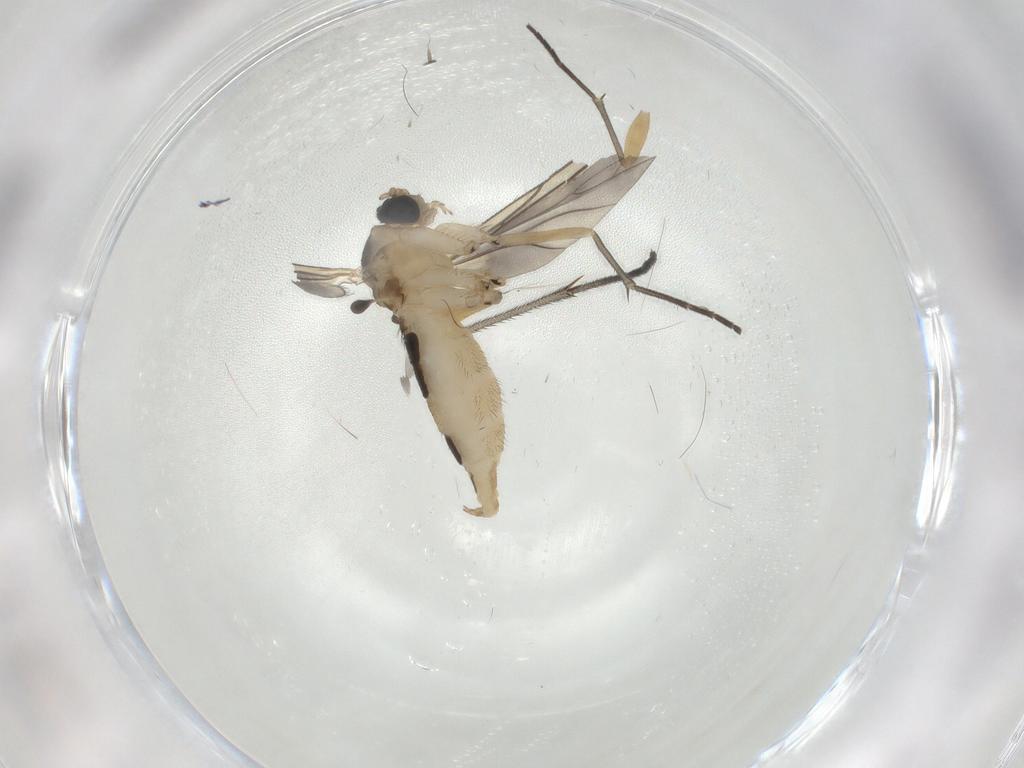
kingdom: Animalia
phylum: Arthropoda
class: Insecta
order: Diptera
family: Sciaridae
